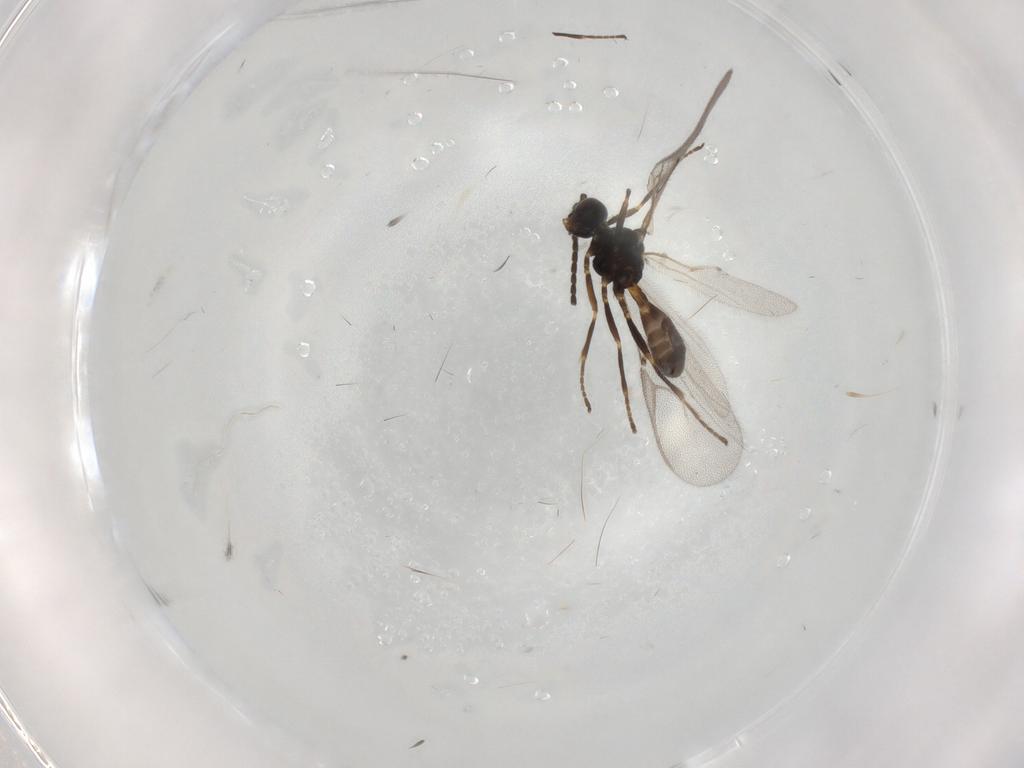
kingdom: Animalia
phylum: Arthropoda
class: Insecta
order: Hymenoptera
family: Braconidae
